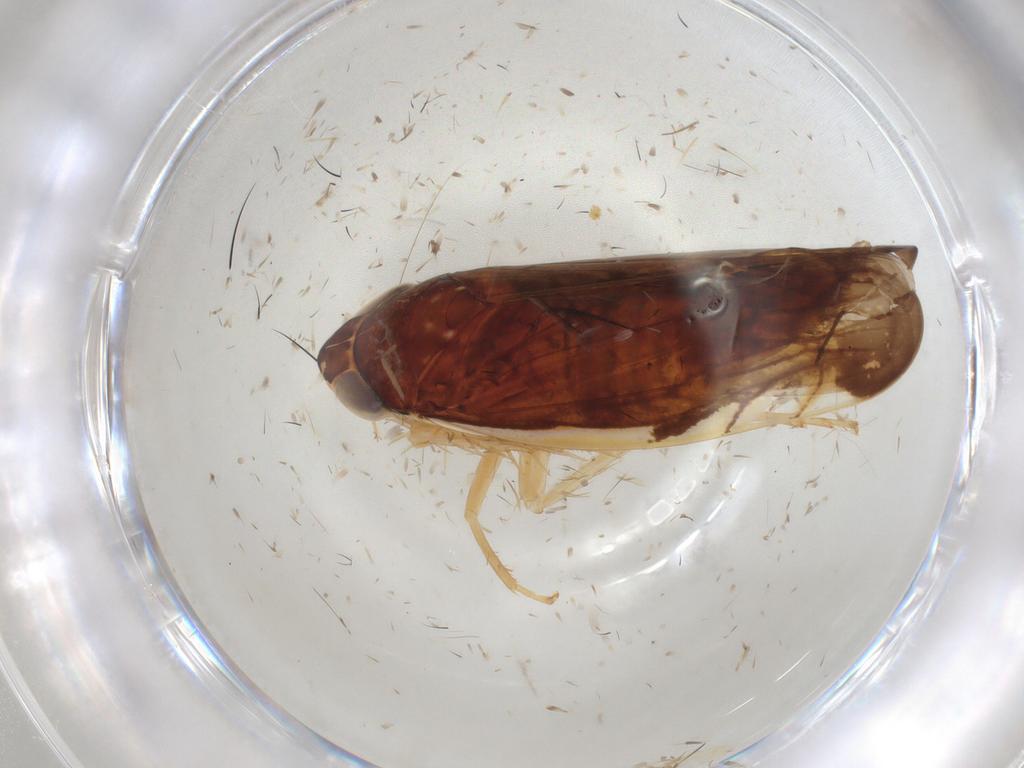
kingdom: Animalia
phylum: Arthropoda
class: Insecta
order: Hemiptera
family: Cicadellidae
